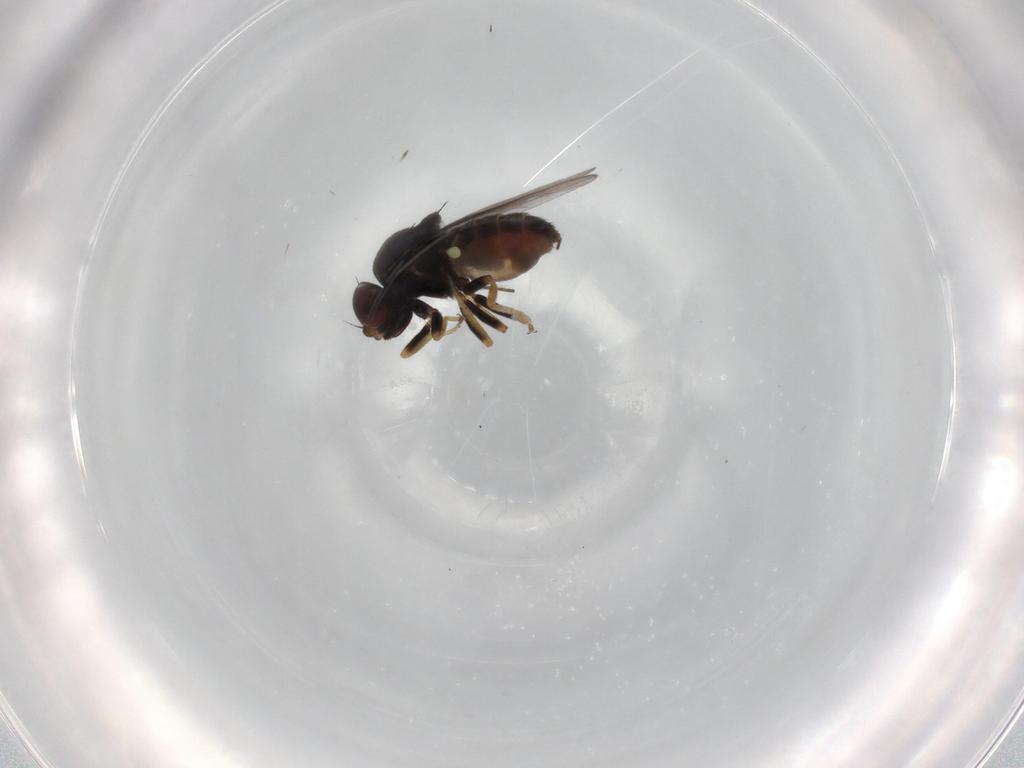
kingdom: Animalia
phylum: Arthropoda
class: Insecta
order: Diptera
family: Chloropidae
